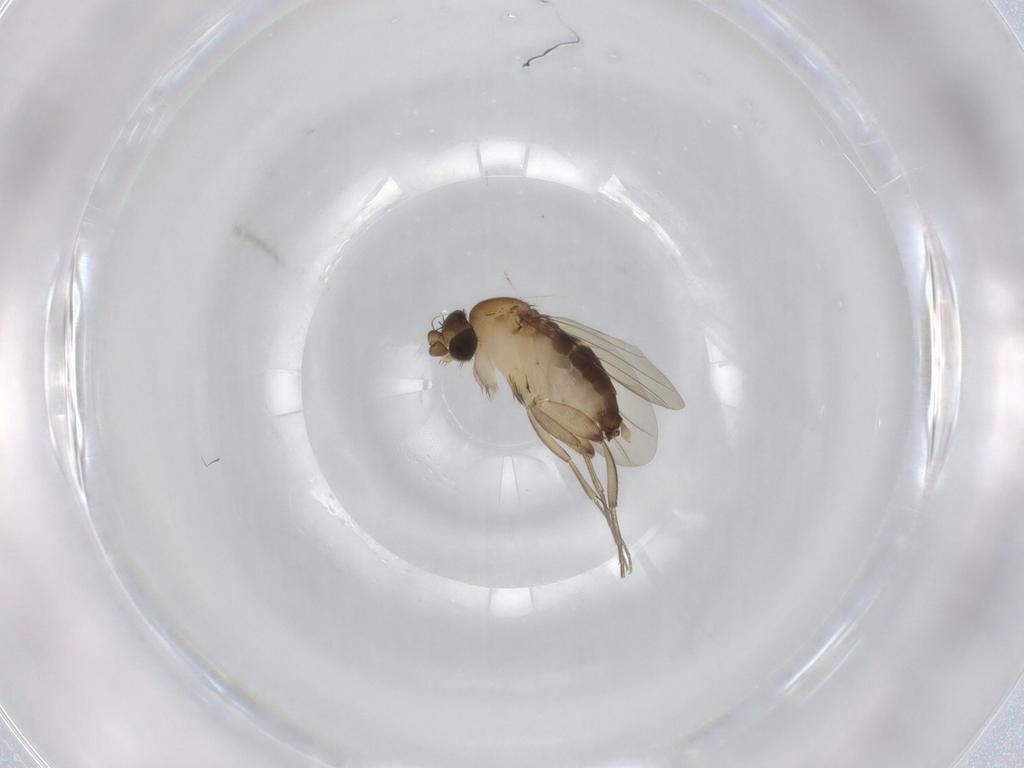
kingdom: Animalia
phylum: Arthropoda
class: Insecta
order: Diptera
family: Phoridae
